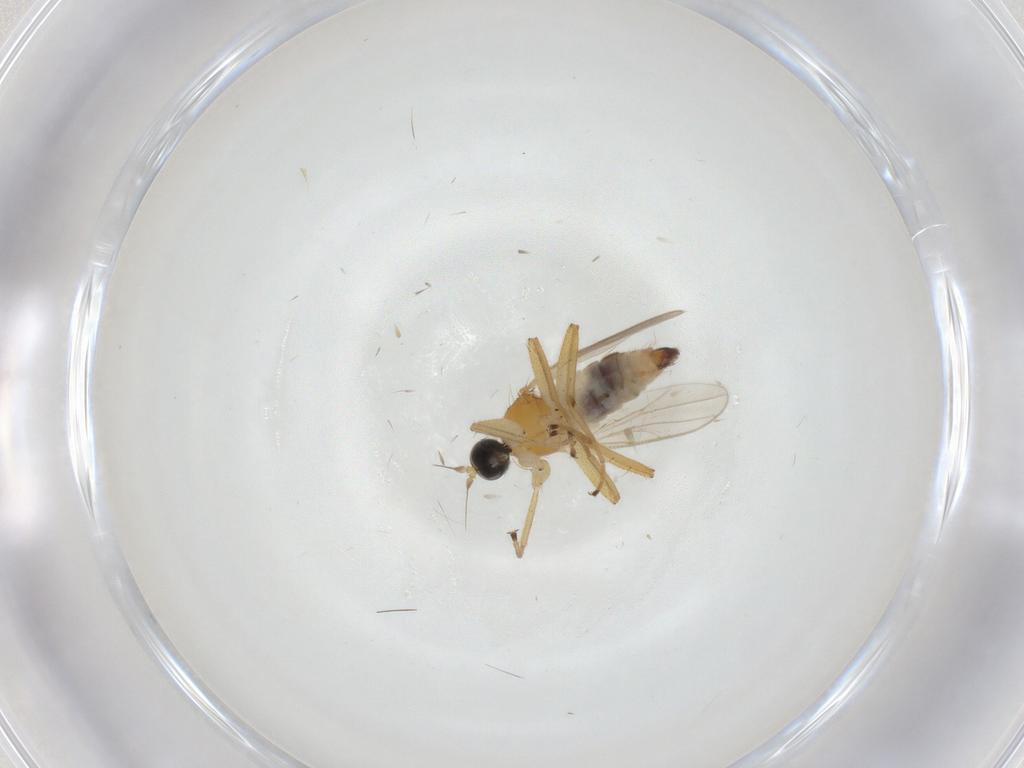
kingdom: Animalia
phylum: Arthropoda
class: Insecta
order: Diptera
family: Hybotidae
